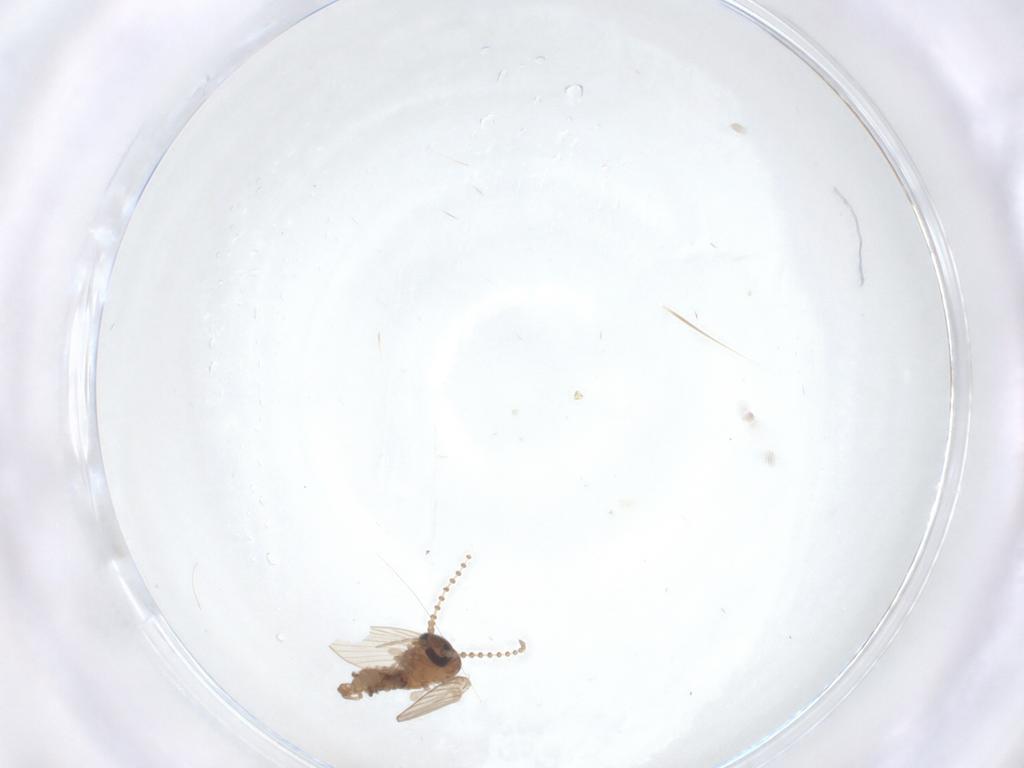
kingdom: Animalia
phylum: Arthropoda
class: Insecta
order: Diptera
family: Psychodidae
